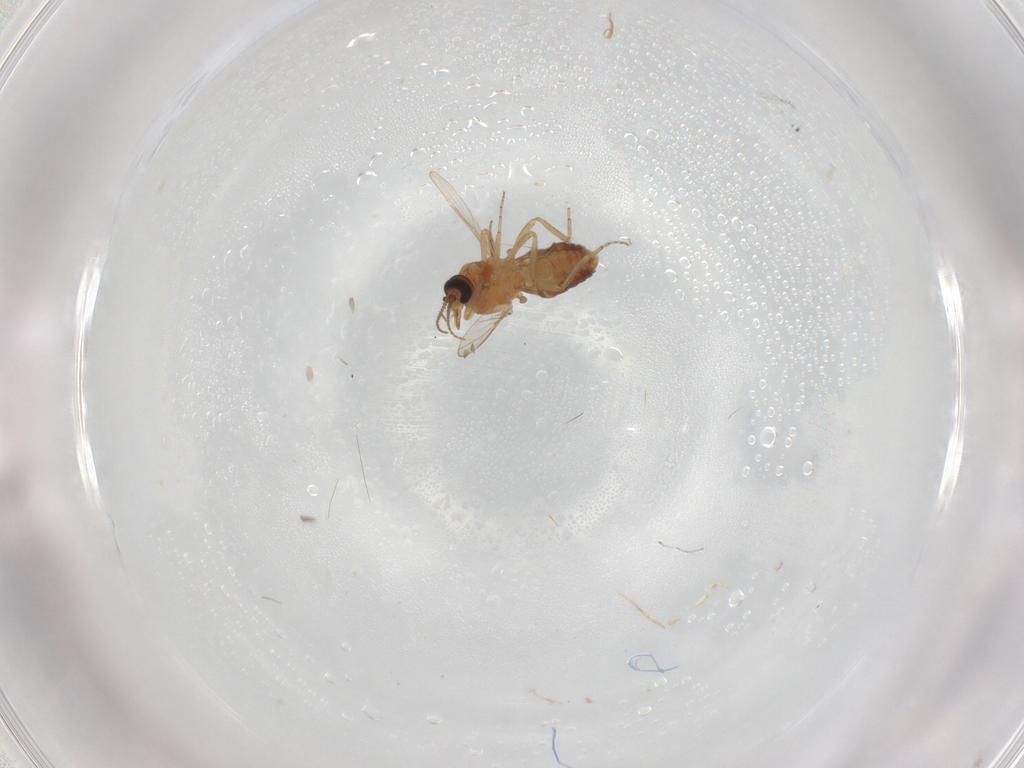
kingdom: Animalia
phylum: Arthropoda
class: Insecta
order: Diptera
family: Ceratopogonidae
